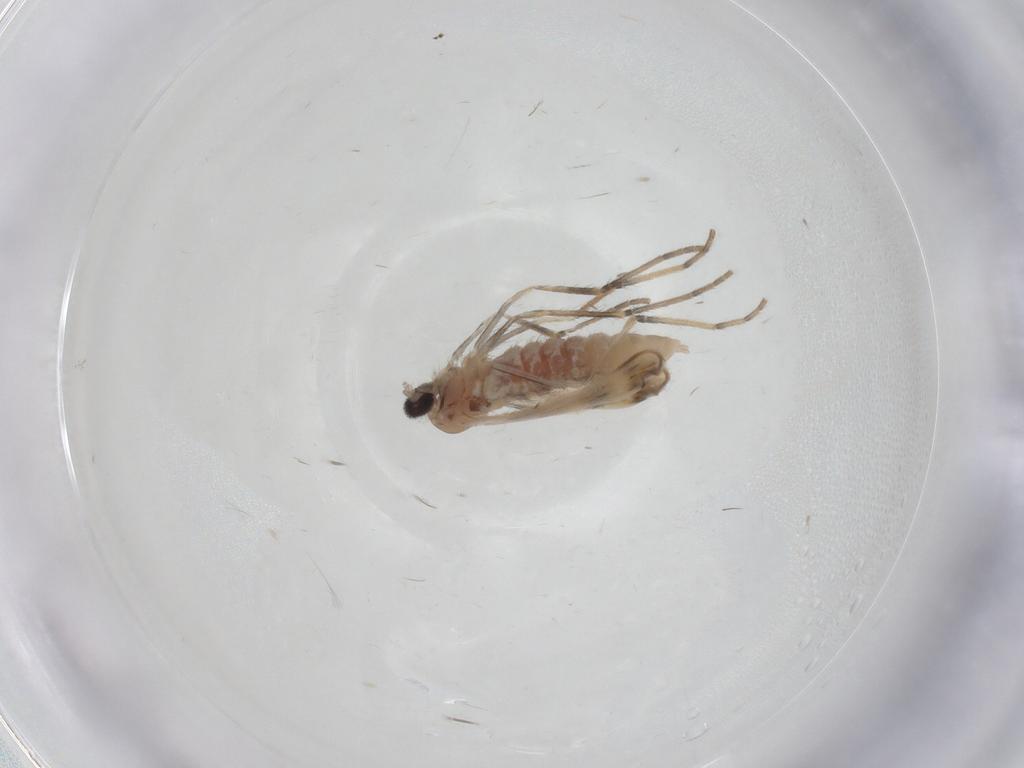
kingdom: Animalia
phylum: Arthropoda
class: Insecta
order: Diptera
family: Cecidomyiidae
